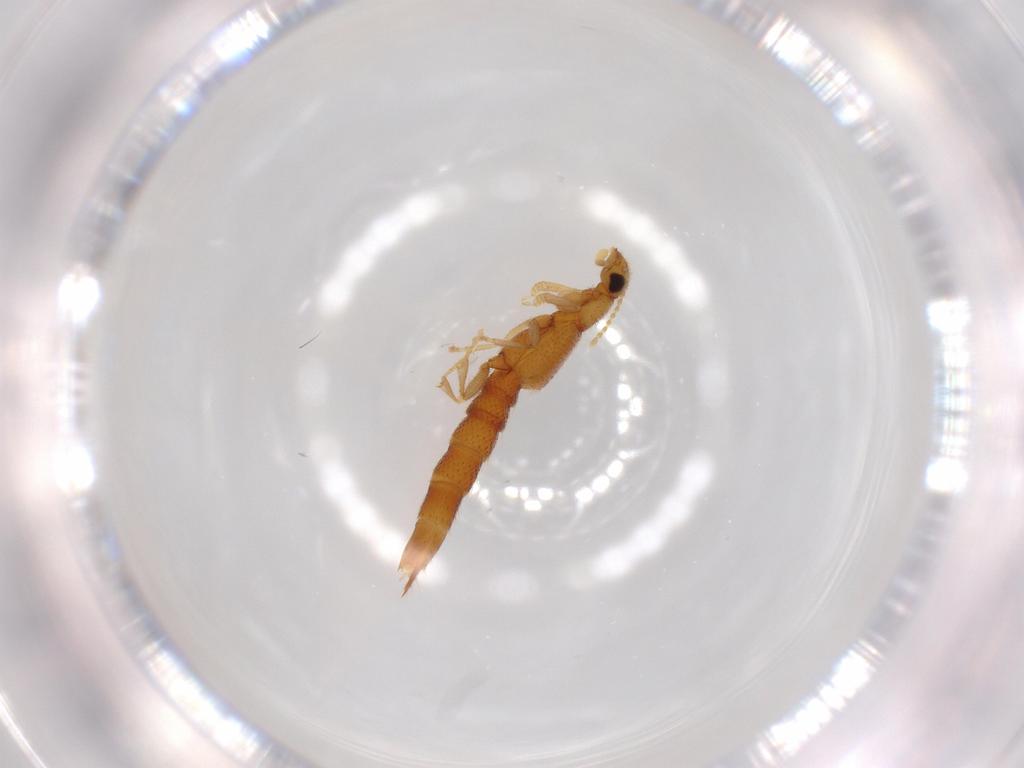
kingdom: Animalia
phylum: Arthropoda
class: Insecta
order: Coleoptera
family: Staphylinidae
